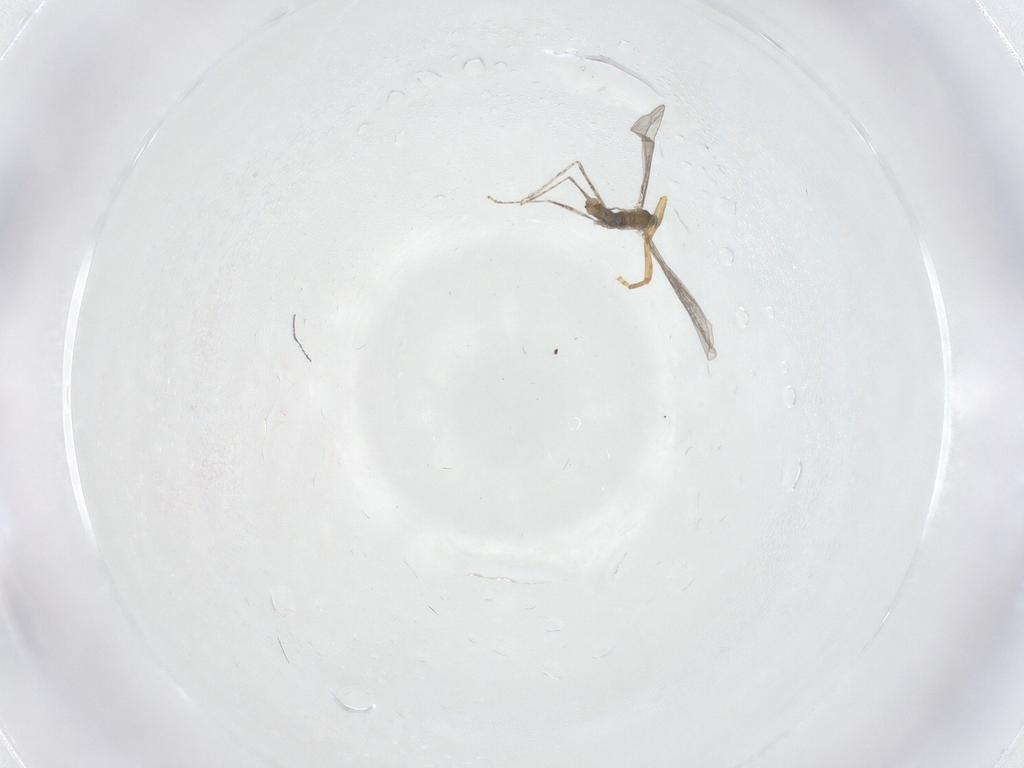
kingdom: Animalia
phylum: Arthropoda
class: Insecta
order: Diptera
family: Cecidomyiidae
